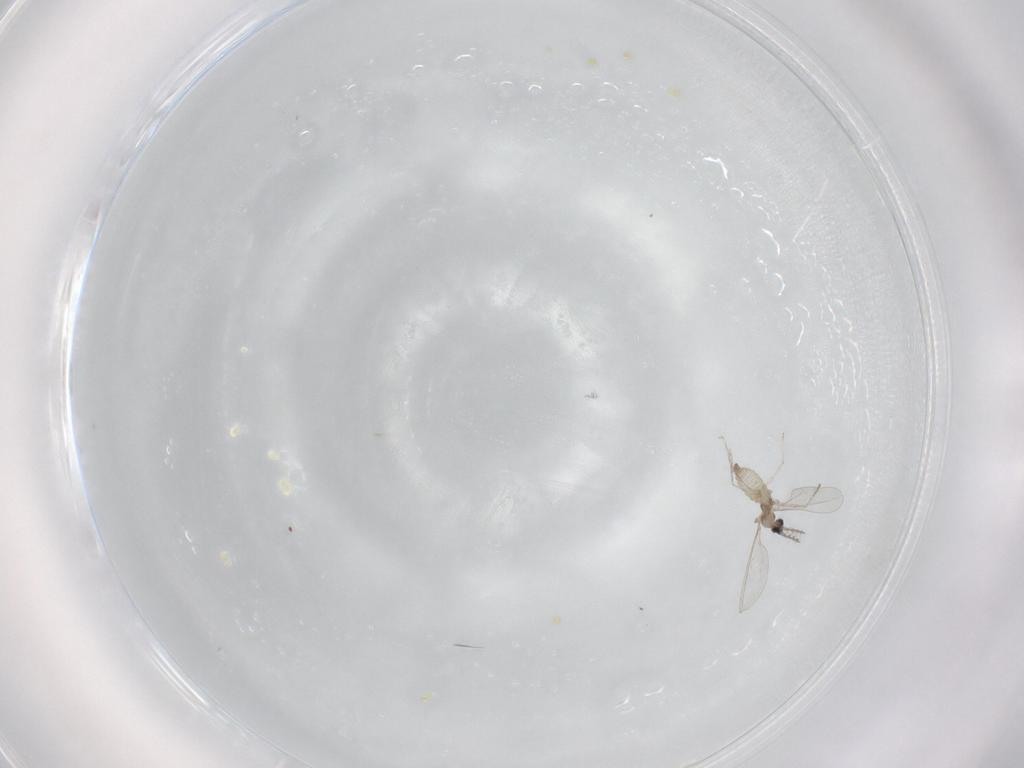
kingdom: Animalia
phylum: Arthropoda
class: Insecta
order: Diptera
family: Cecidomyiidae
